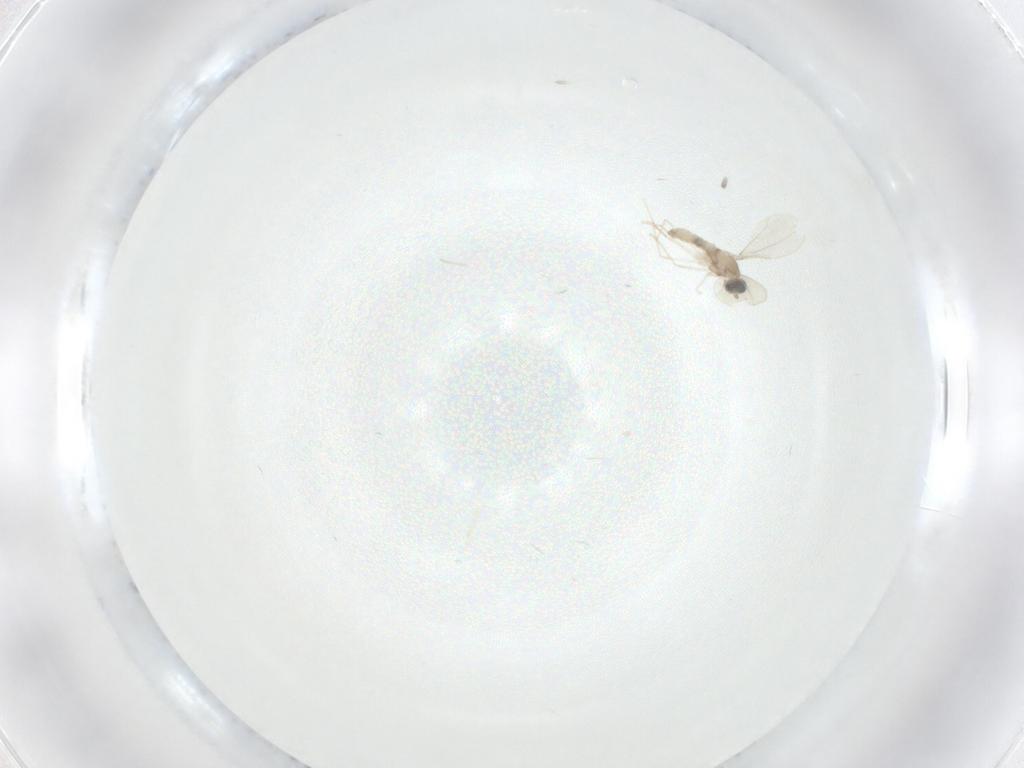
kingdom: Animalia
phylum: Arthropoda
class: Insecta
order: Diptera
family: Cecidomyiidae
